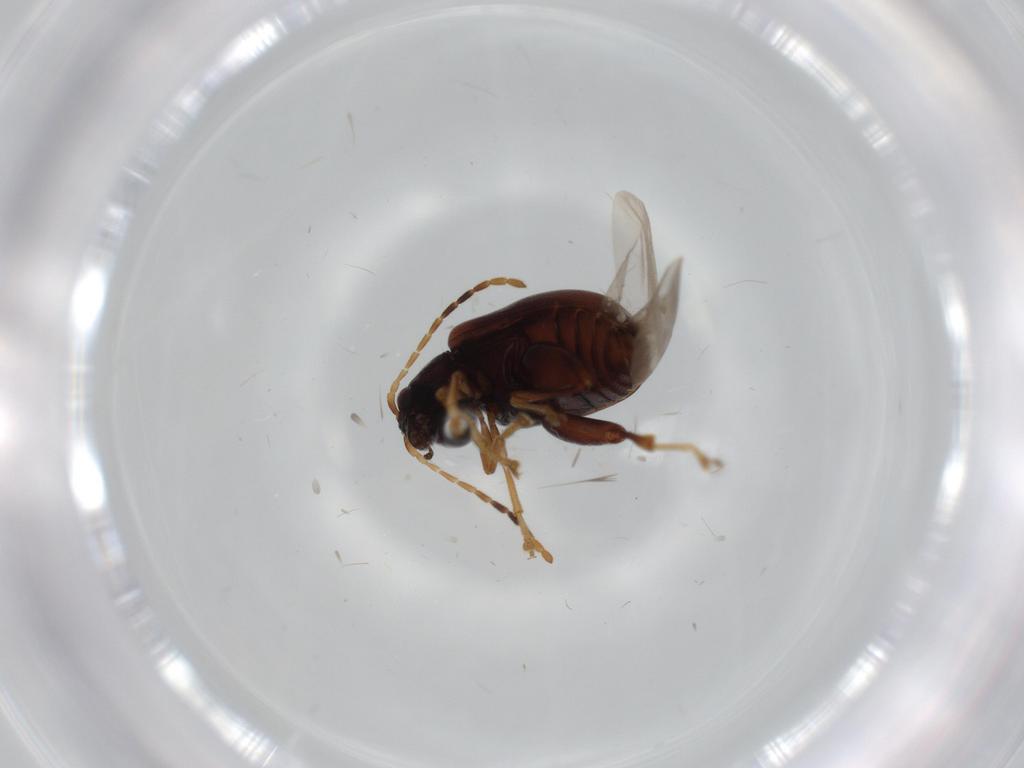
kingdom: Animalia
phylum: Arthropoda
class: Insecta
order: Coleoptera
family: Chrysomelidae
